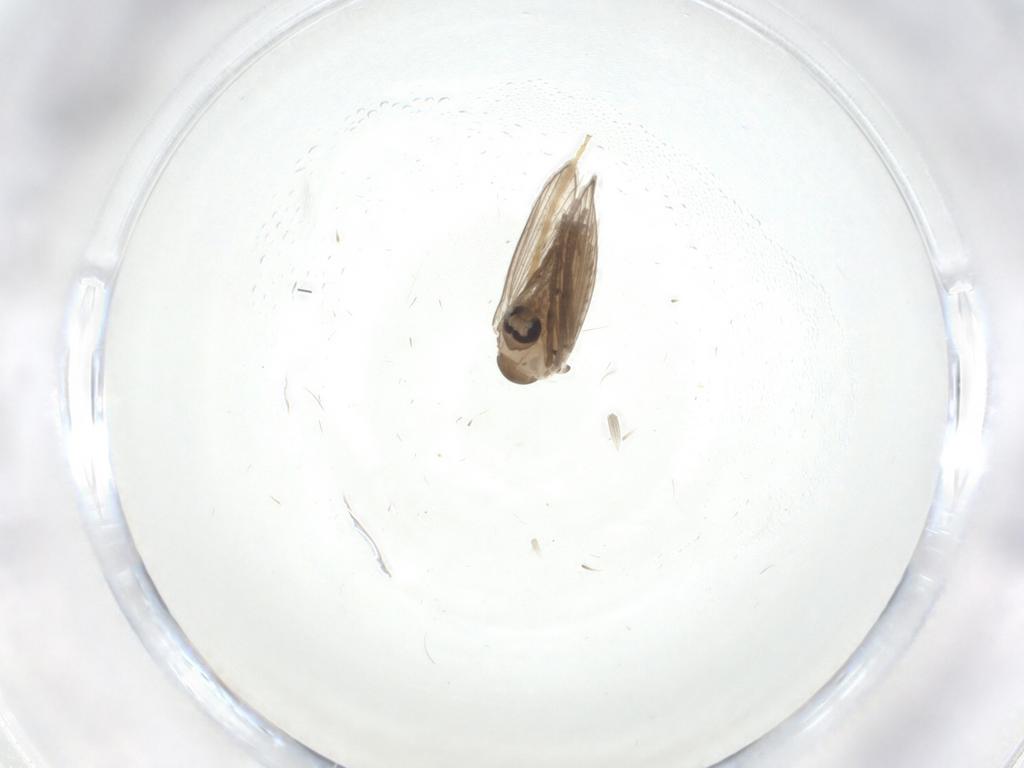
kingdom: Animalia
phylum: Arthropoda
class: Insecta
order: Diptera
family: Psychodidae
